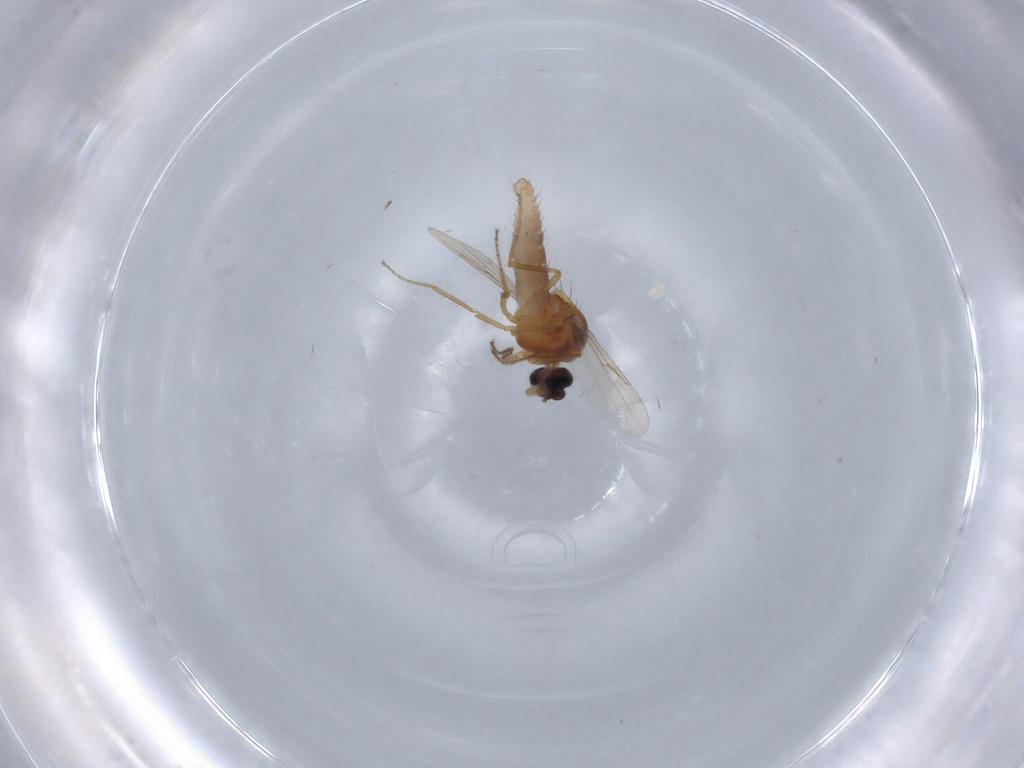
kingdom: Animalia
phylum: Arthropoda
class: Insecta
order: Diptera
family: Ceratopogonidae
